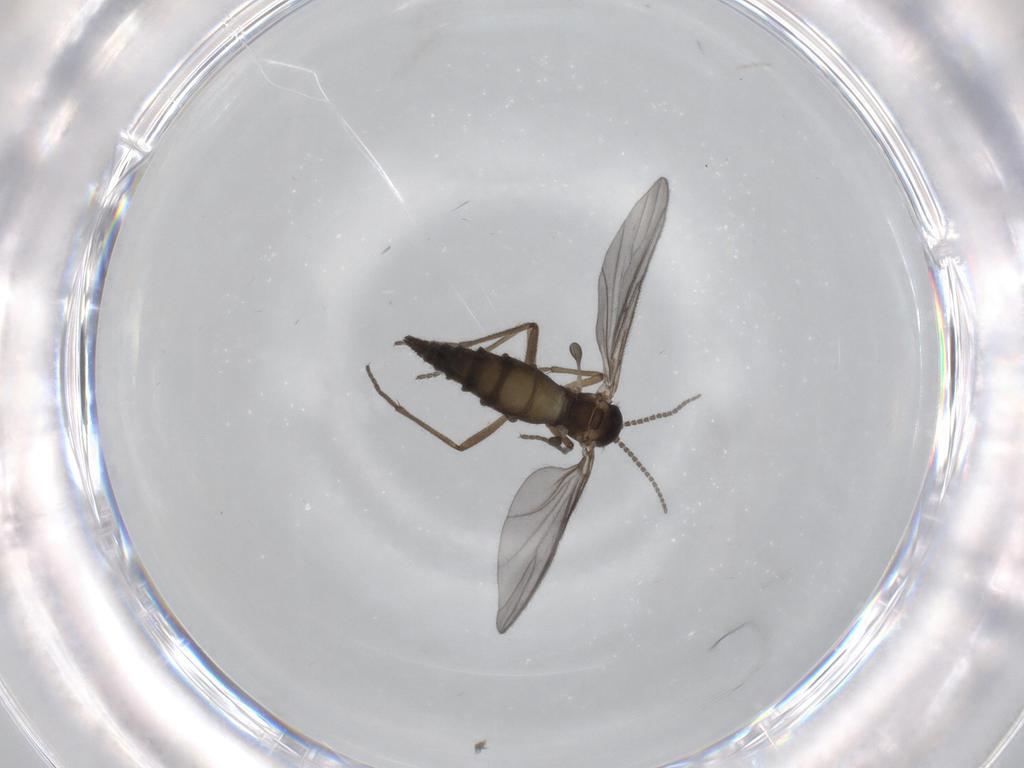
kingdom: Animalia
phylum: Arthropoda
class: Insecta
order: Diptera
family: Sciaridae
